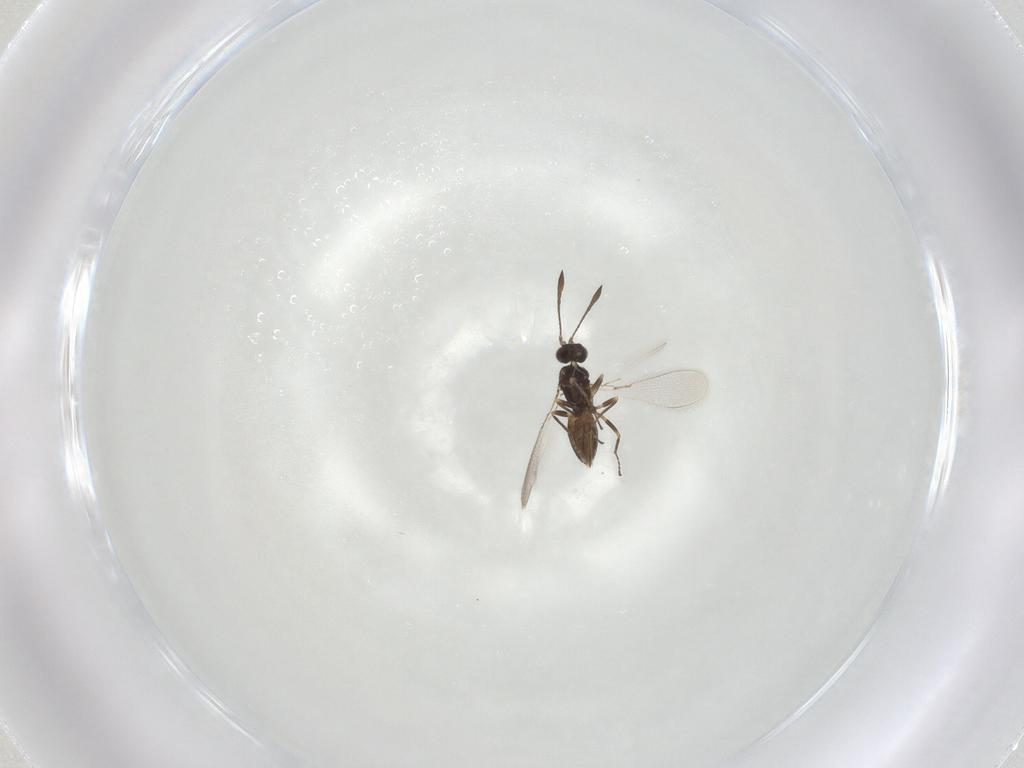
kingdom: Animalia
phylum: Arthropoda
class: Insecta
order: Hymenoptera
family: Mymaridae
